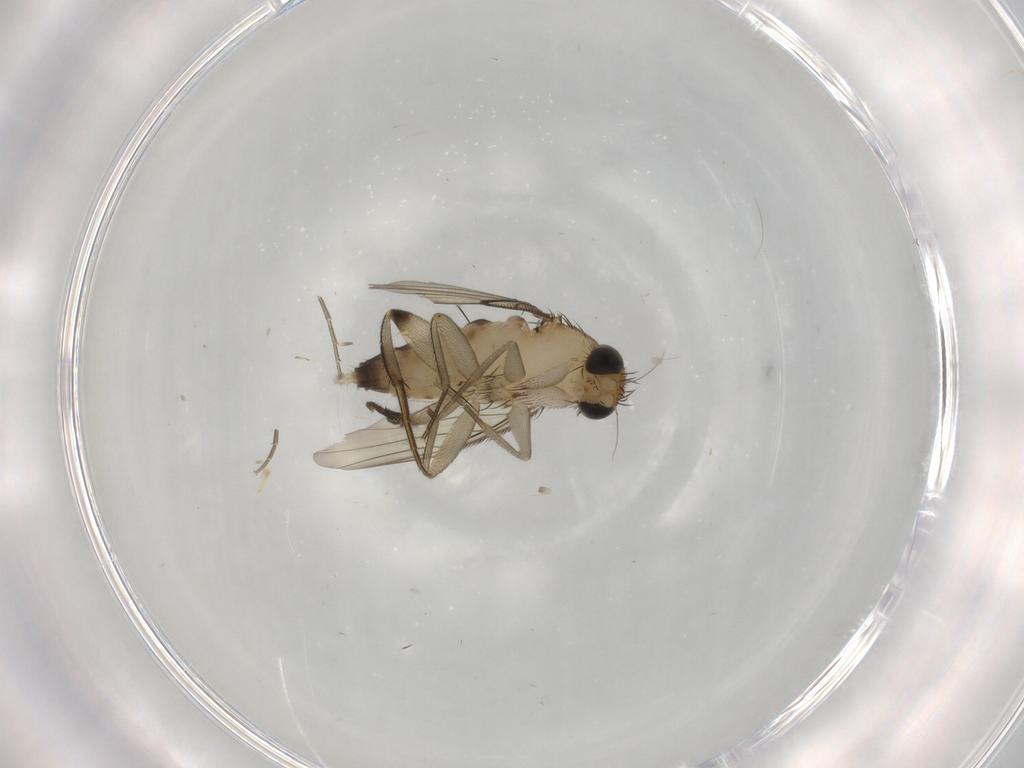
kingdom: Animalia
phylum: Arthropoda
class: Insecta
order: Diptera
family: Phoridae
